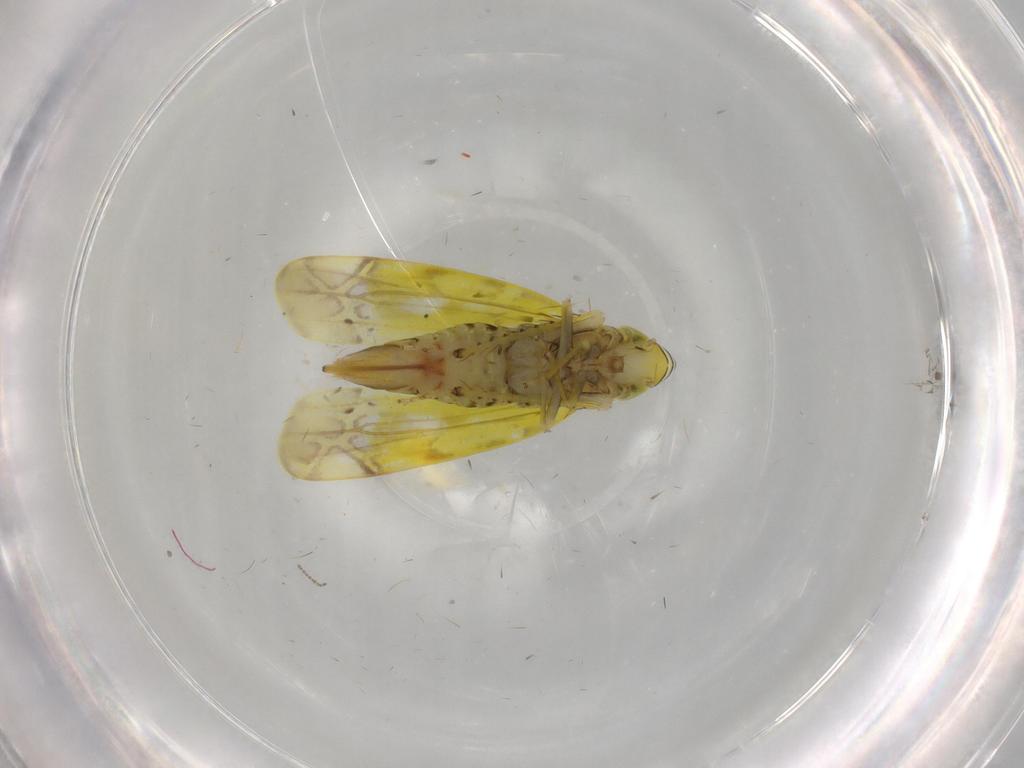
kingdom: Animalia
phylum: Arthropoda
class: Insecta
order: Hemiptera
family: Cicadellidae
